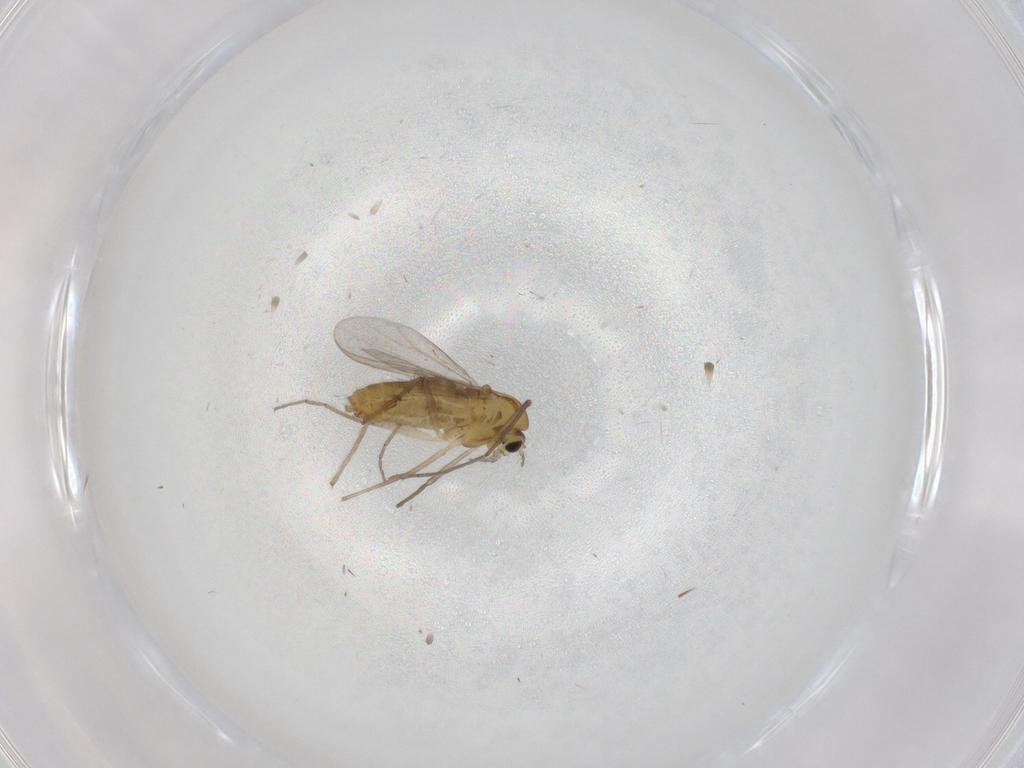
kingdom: Animalia
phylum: Arthropoda
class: Insecta
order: Diptera
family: Chironomidae
